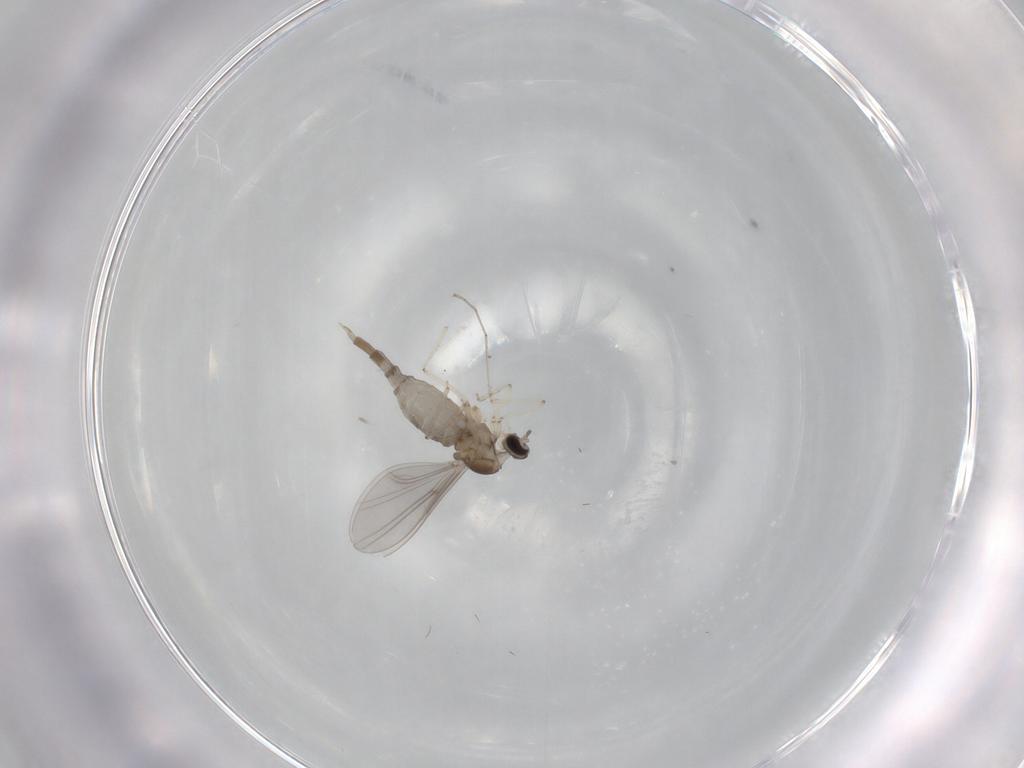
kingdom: Animalia
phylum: Arthropoda
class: Insecta
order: Diptera
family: Cecidomyiidae
